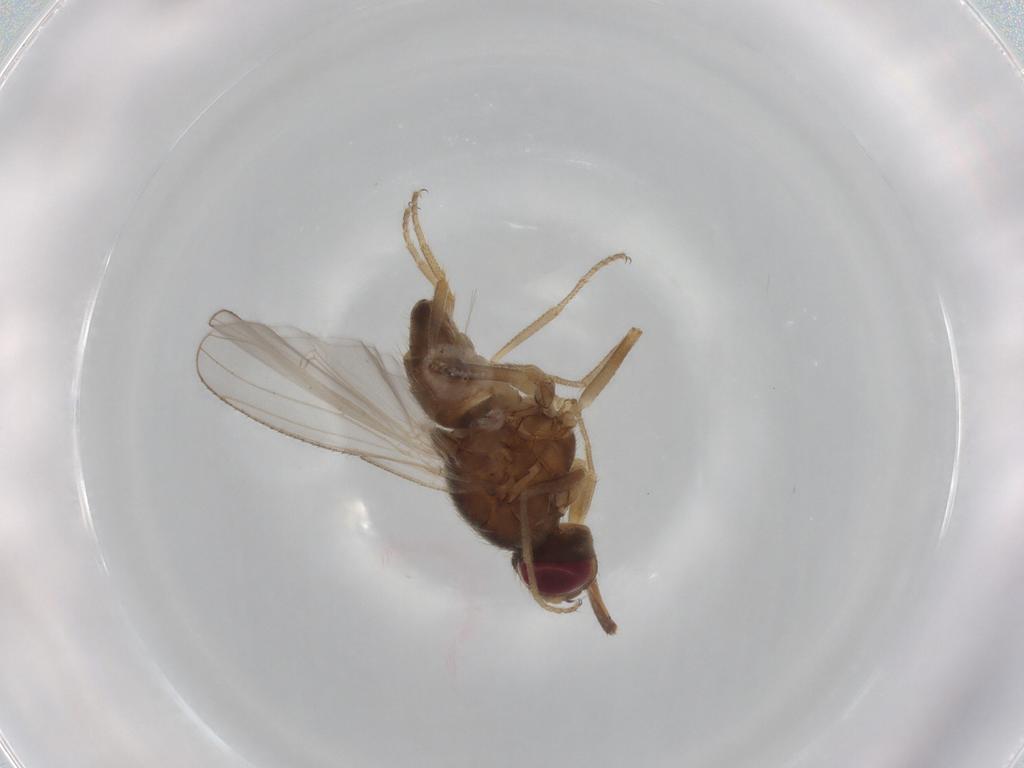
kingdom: Animalia
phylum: Arthropoda
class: Insecta
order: Diptera
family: Muscidae
